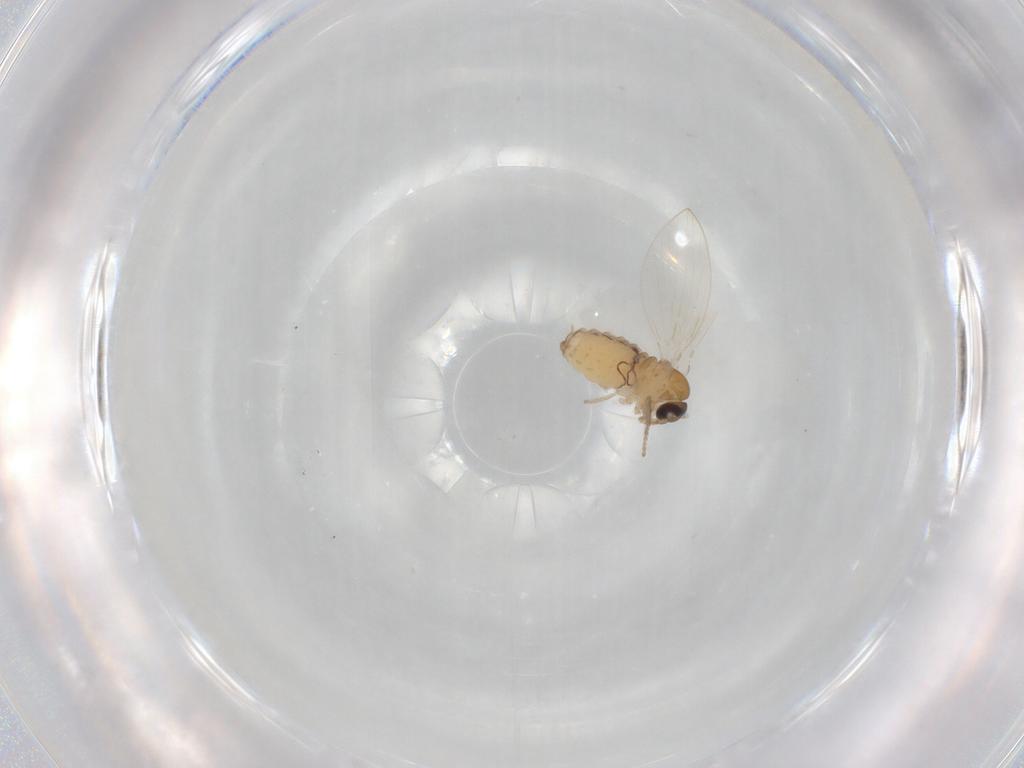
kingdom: Animalia
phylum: Arthropoda
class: Insecta
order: Diptera
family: Psychodidae
